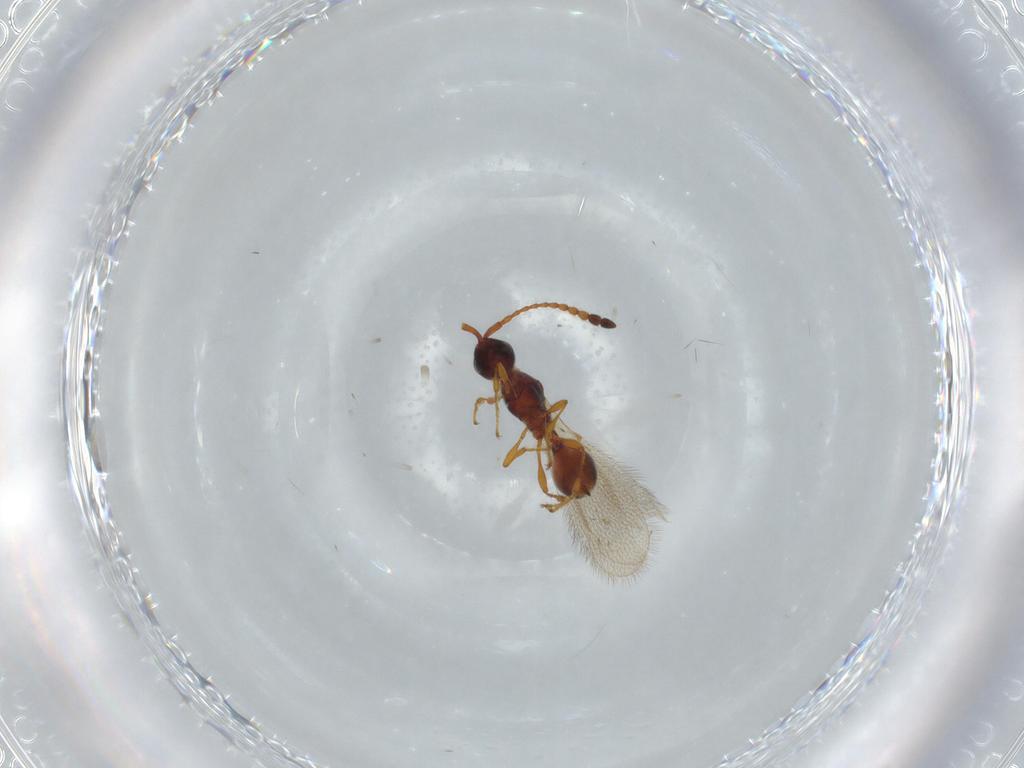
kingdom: Animalia
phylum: Arthropoda
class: Insecta
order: Hymenoptera
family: Diapriidae
